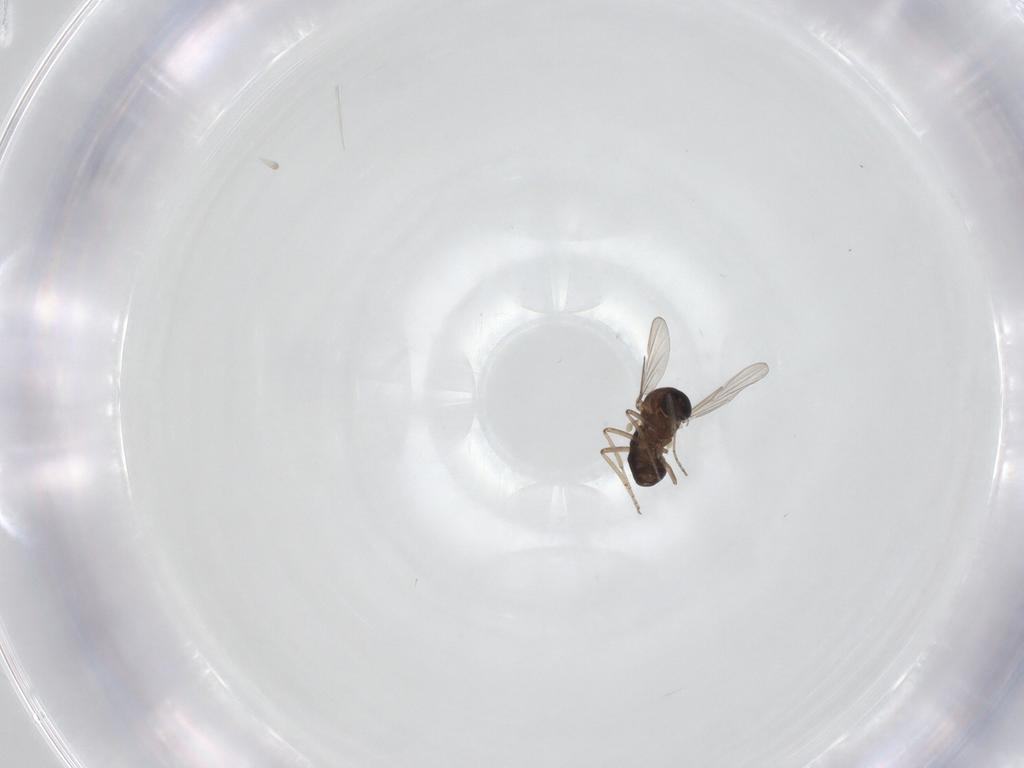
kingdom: Animalia
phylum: Arthropoda
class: Insecta
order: Diptera
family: Ceratopogonidae
